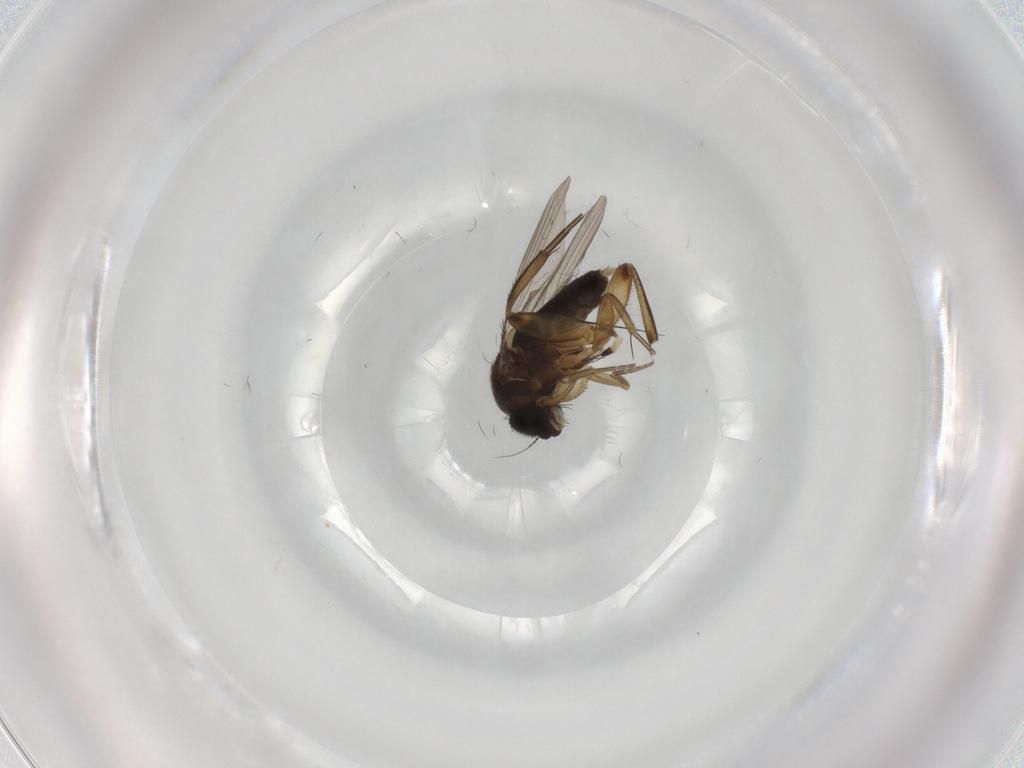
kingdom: Animalia
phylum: Arthropoda
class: Insecta
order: Diptera
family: Phoridae
